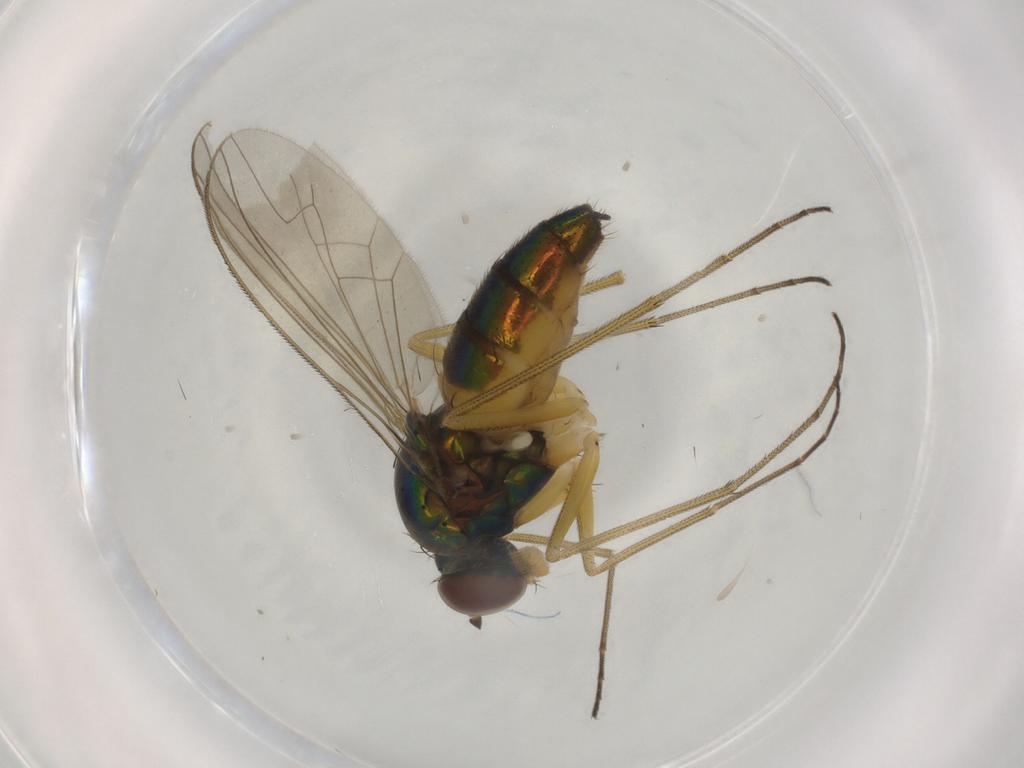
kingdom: Animalia
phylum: Arthropoda
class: Insecta
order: Diptera
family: Dolichopodidae
